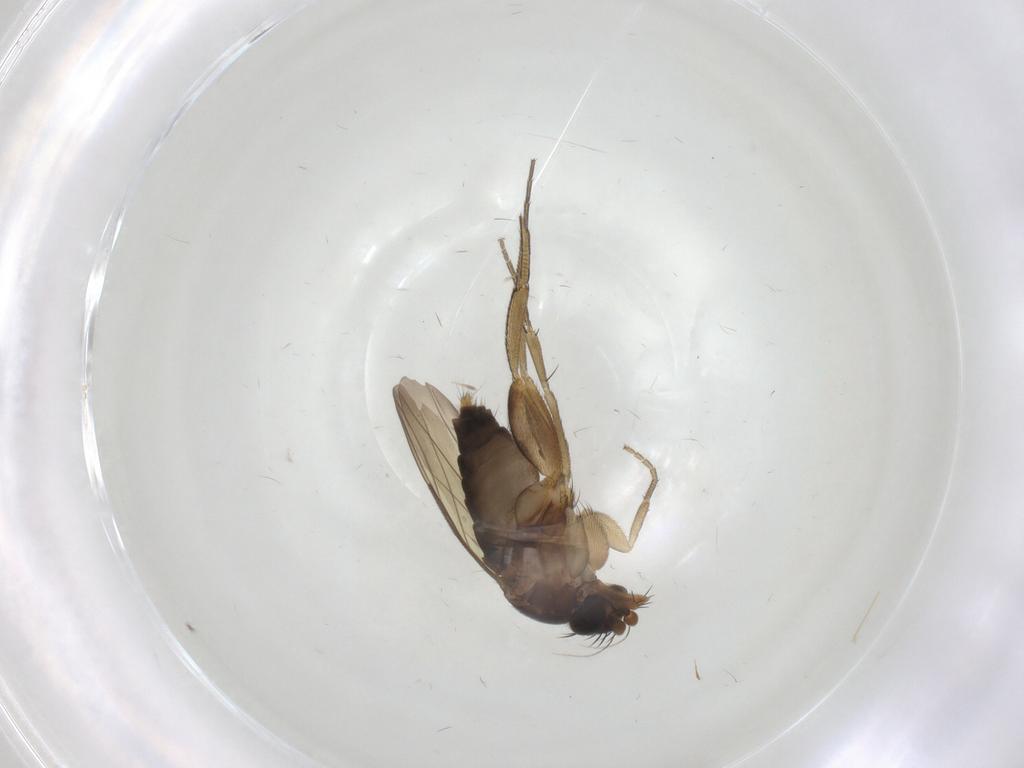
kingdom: Animalia
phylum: Arthropoda
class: Insecta
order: Diptera
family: Phoridae
